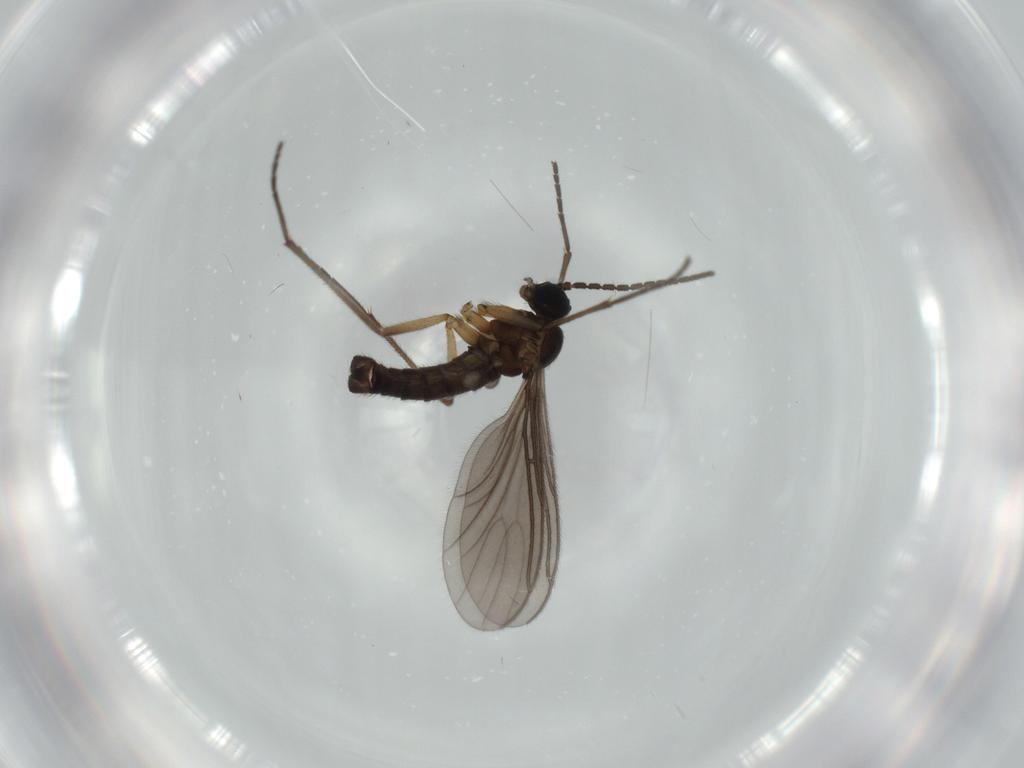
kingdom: Animalia
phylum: Arthropoda
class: Insecta
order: Diptera
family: Sciaridae
